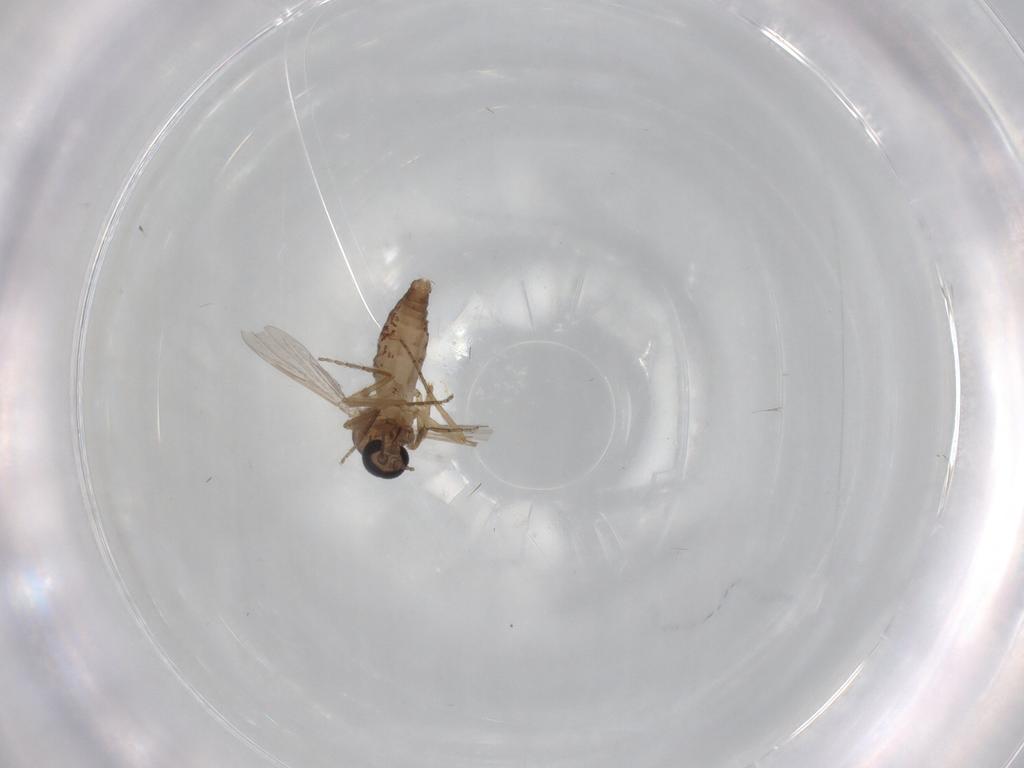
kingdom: Animalia
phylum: Arthropoda
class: Insecta
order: Diptera
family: Ceratopogonidae
